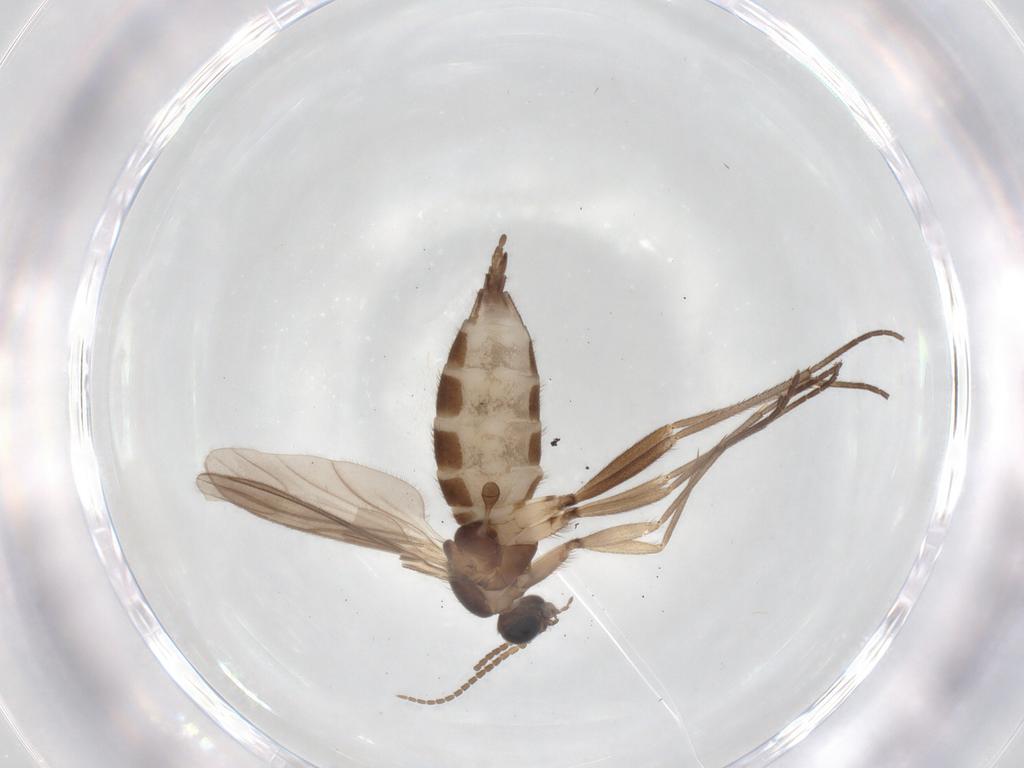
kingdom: Animalia
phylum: Arthropoda
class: Insecta
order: Diptera
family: Sciaridae
